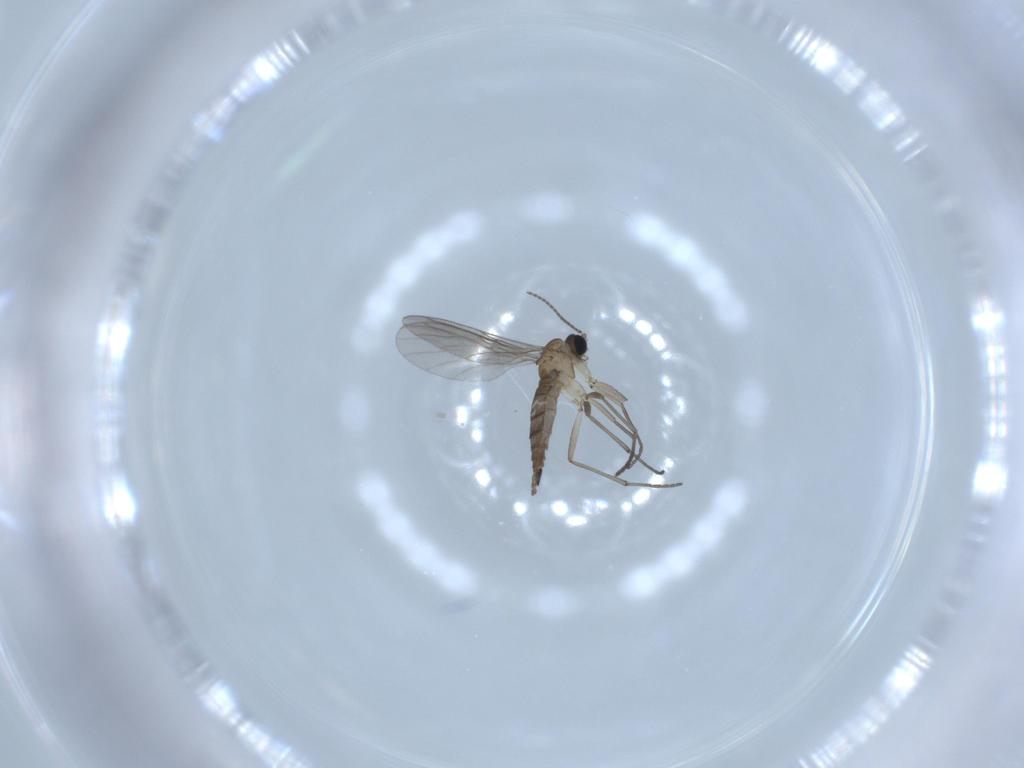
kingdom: Animalia
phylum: Arthropoda
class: Insecta
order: Diptera
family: Sciaridae
